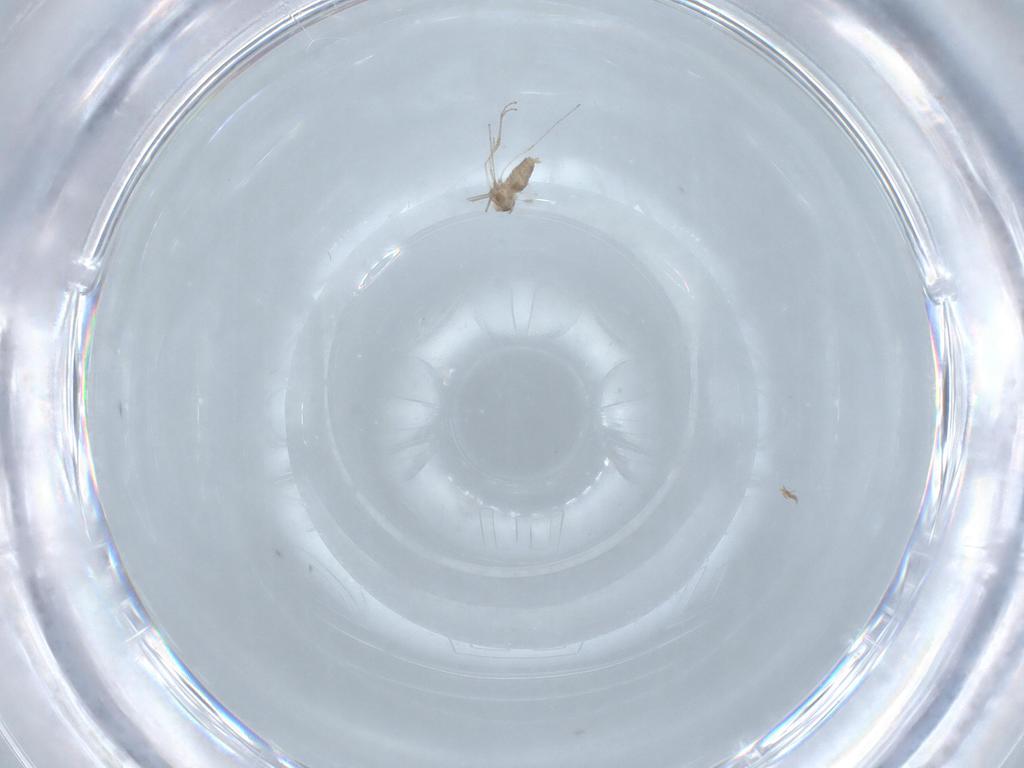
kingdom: Animalia
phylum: Arthropoda
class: Insecta
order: Diptera
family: Cecidomyiidae
